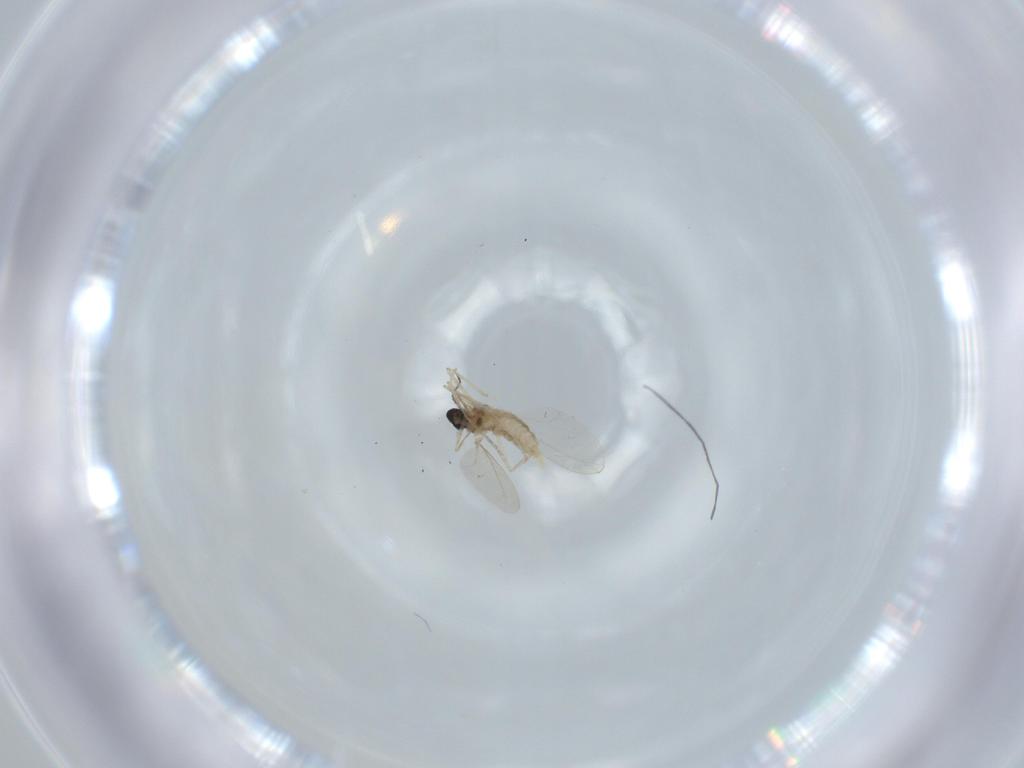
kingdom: Animalia
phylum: Arthropoda
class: Insecta
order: Diptera
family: Cecidomyiidae
